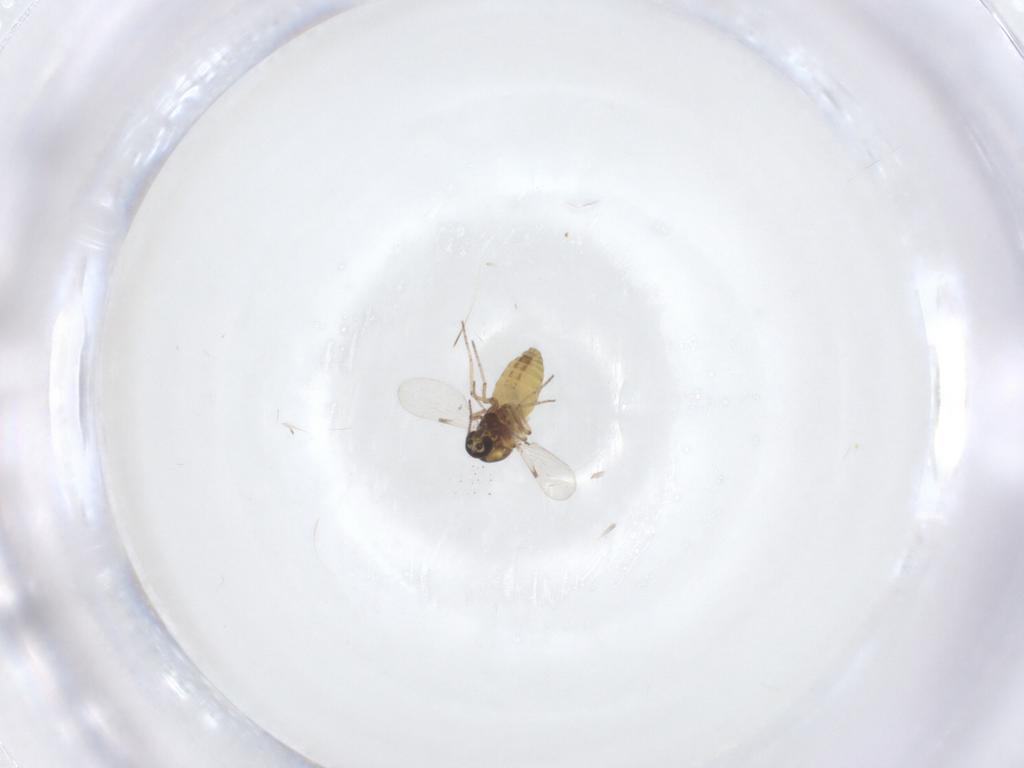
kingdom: Animalia
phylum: Arthropoda
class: Insecta
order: Diptera
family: Ceratopogonidae
